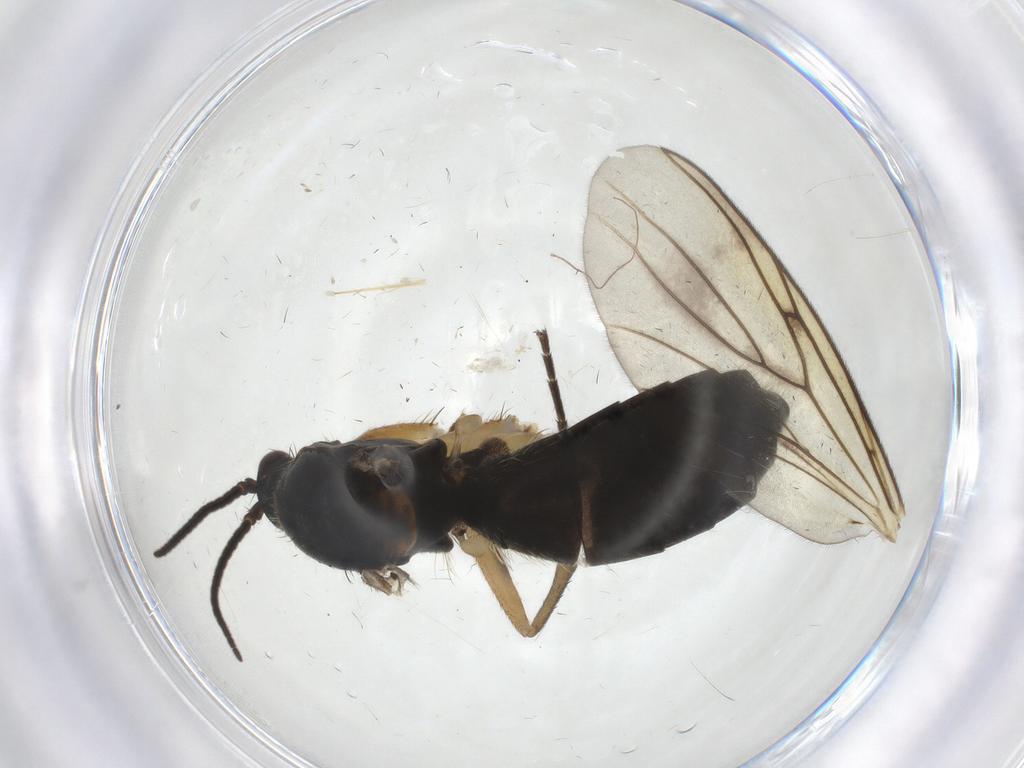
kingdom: Animalia
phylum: Arthropoda
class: Insecta
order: Diptera
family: Mycetophilidae
